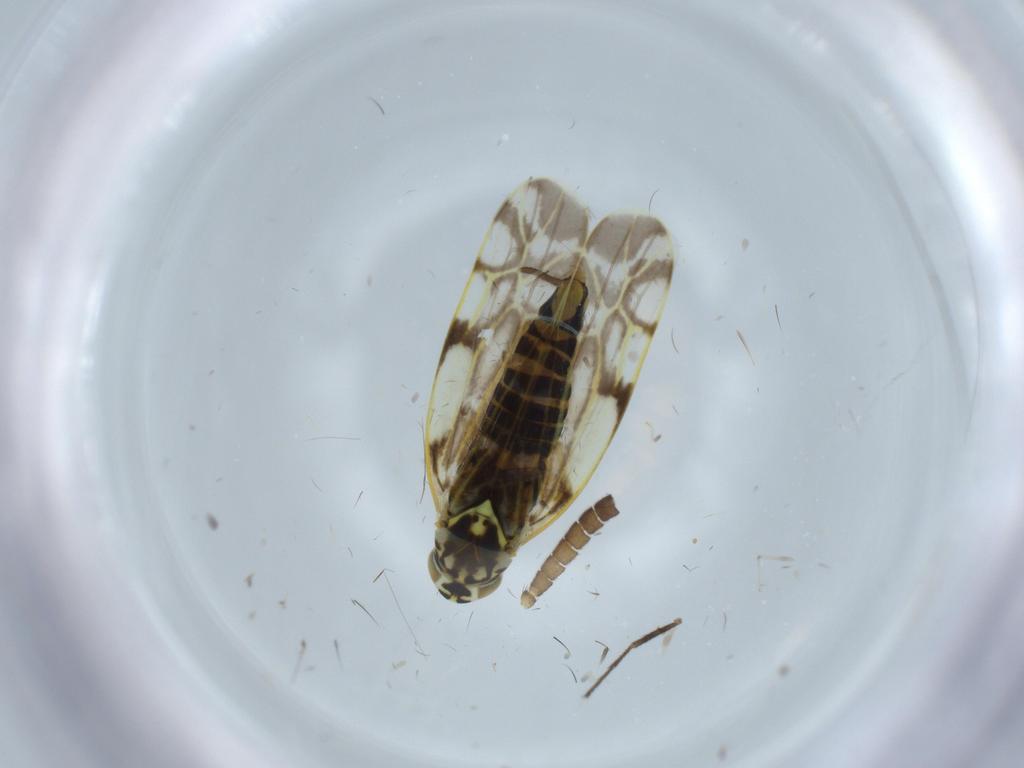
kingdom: Animalia
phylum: Arthropoda
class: Insecta
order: Hemiptera
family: Cicadellidae
